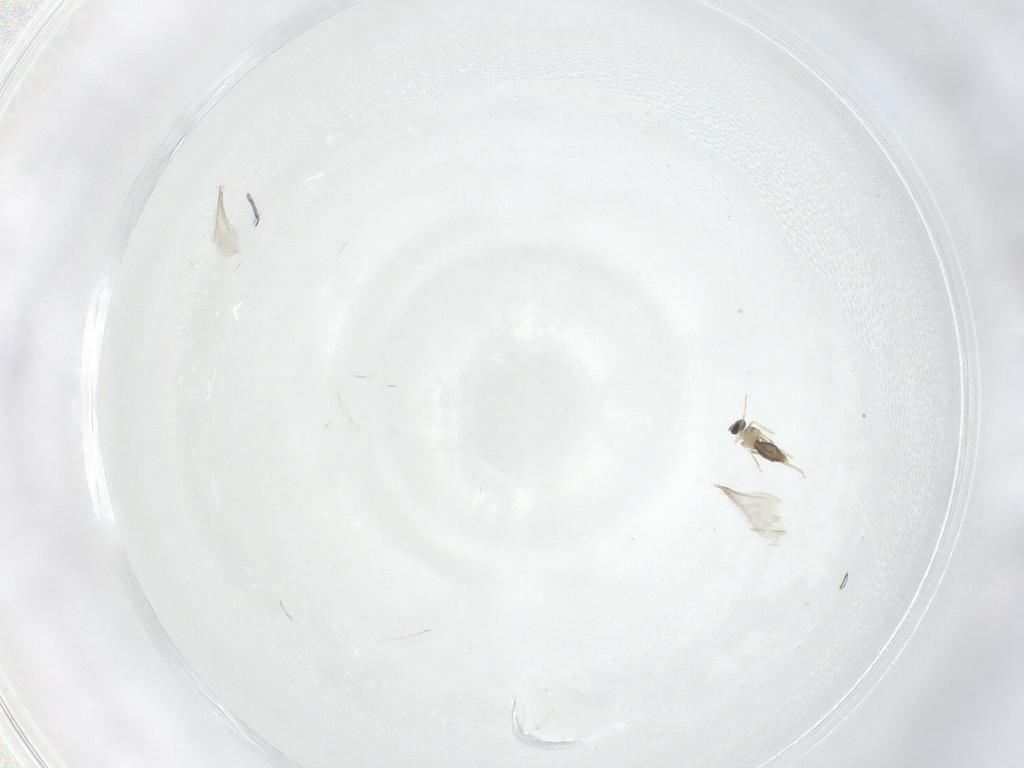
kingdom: Animalia
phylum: Arthropoda
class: Insecta
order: Diptera
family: Cecidomyiidae
